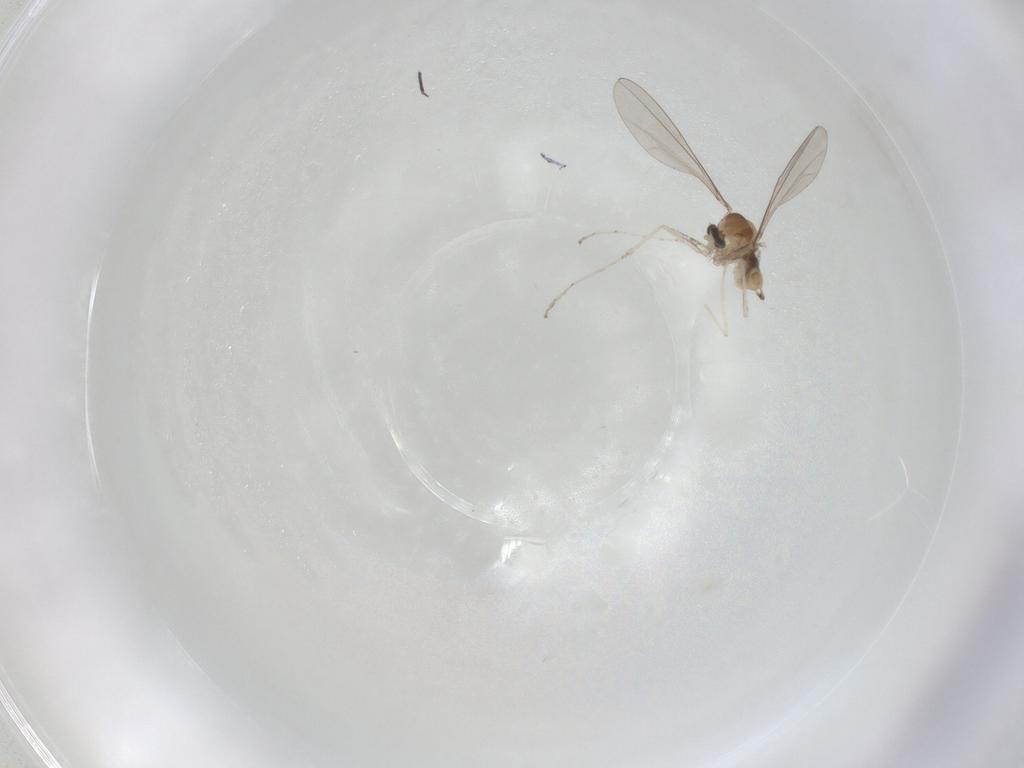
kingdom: Animalia
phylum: Arthropoda
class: Insecta
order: Diptera
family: Cecidomyiidae
